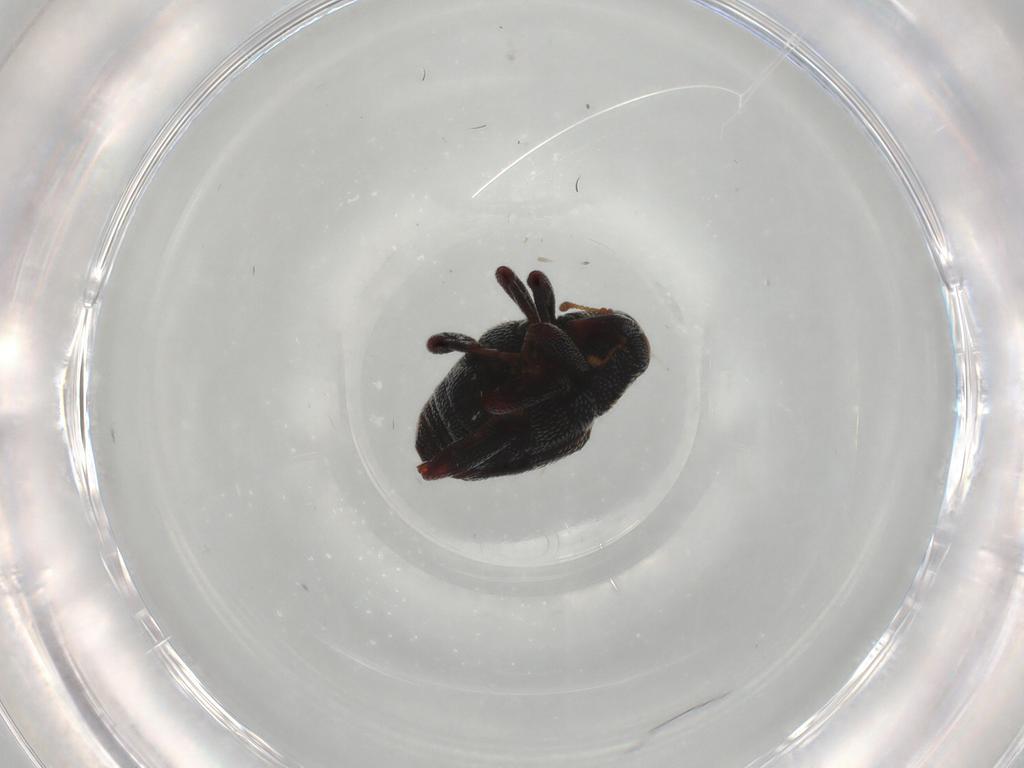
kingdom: Animalia
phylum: Arthropoda
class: Insecta
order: Coleoptera
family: Curculionidae
